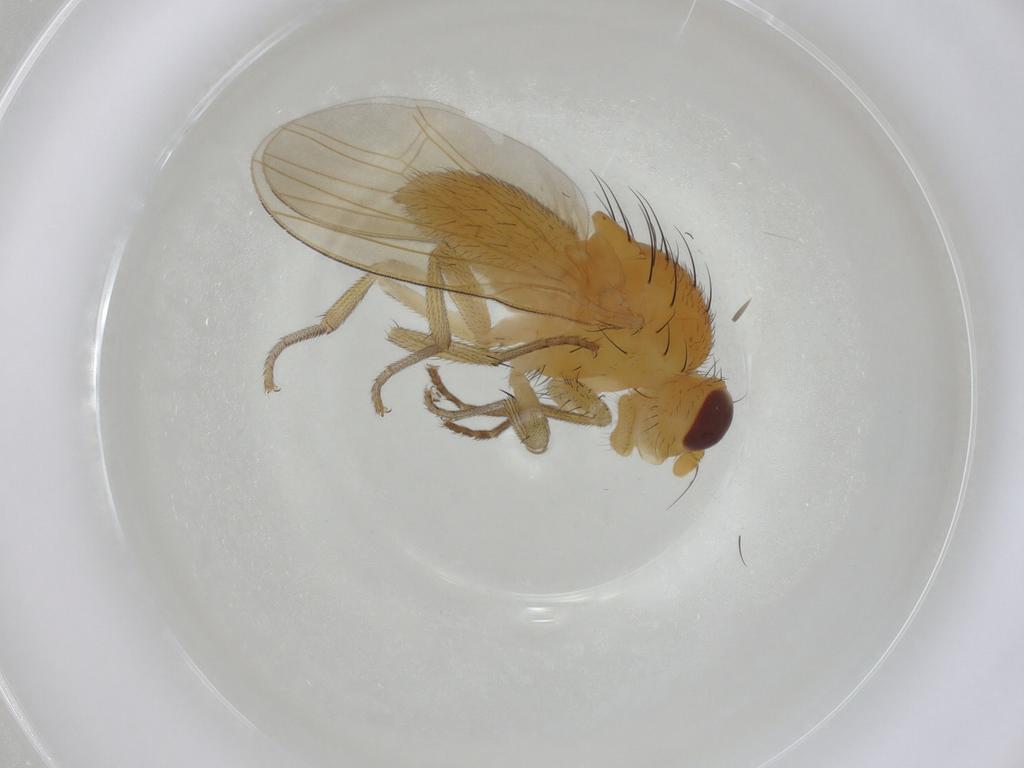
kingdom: Animalia
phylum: Arthropoda
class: Insecta
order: Diptera
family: Lauxaniidae
